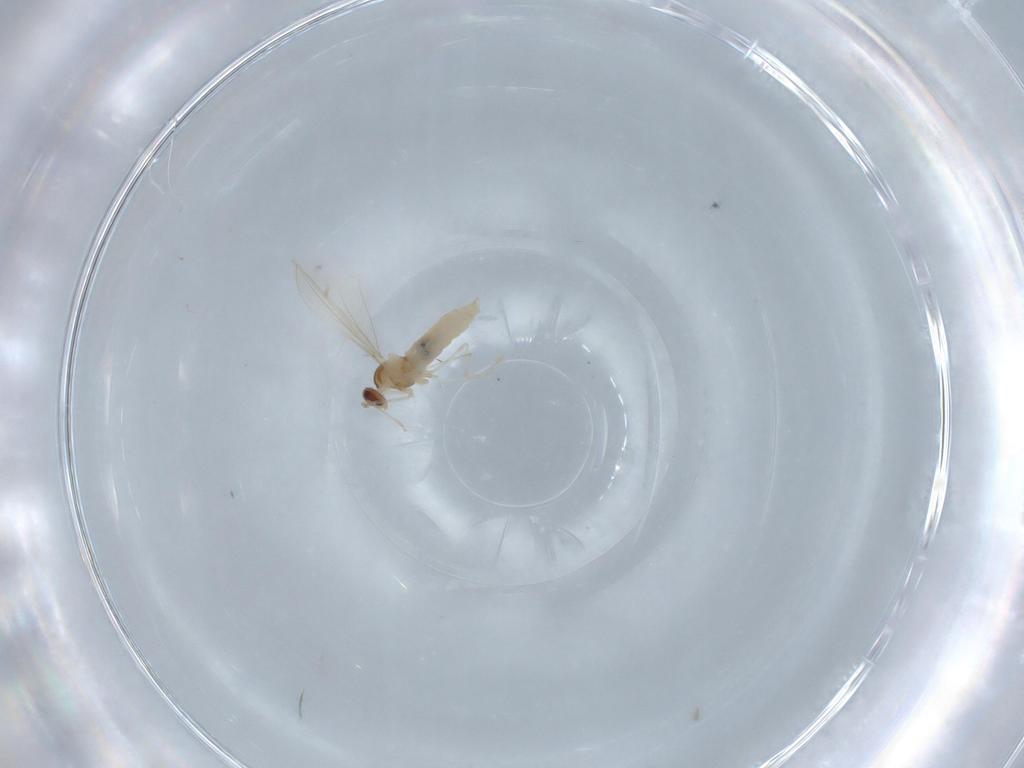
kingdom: Animalia
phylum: Arthropoda
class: Insecta
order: Diptera
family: Cecidomyiidae
